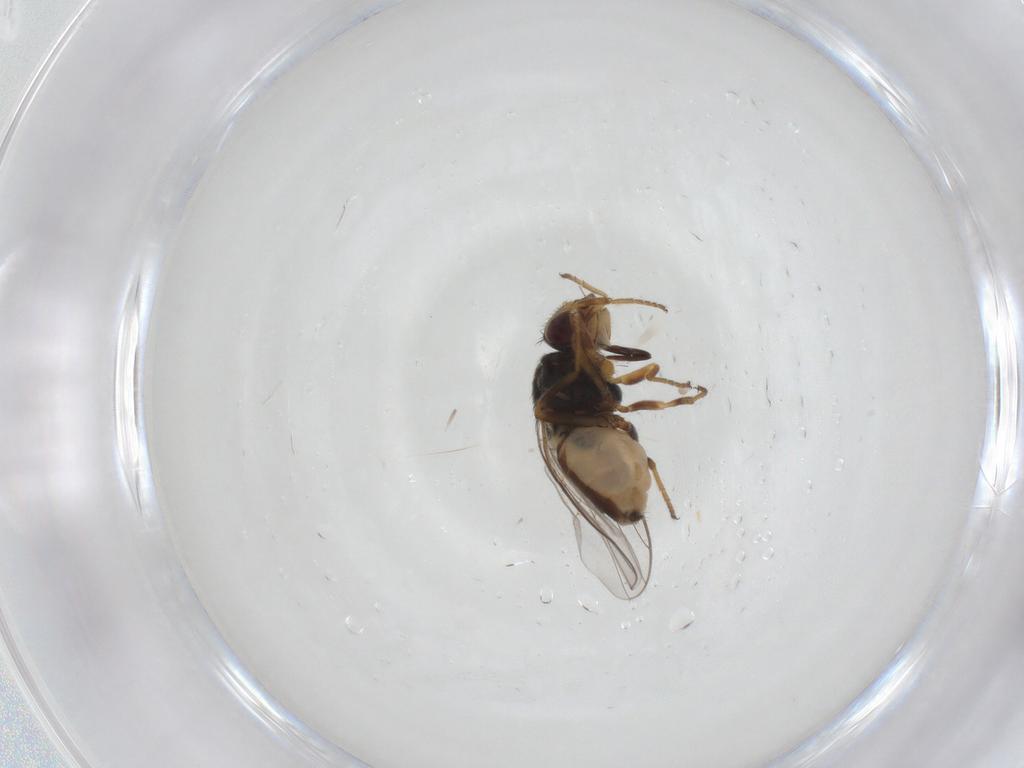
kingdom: Animalia
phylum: Arthropoda
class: Insecta
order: Diptera
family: Chloropidae
